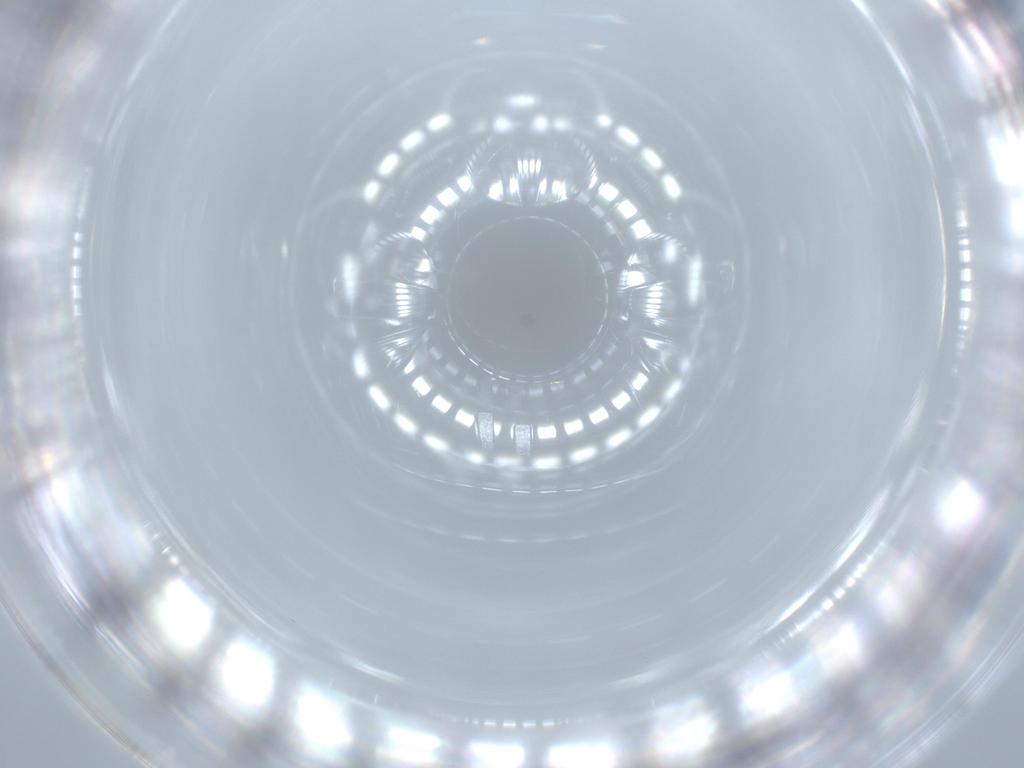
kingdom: Animalia
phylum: Arthropoda
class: Insecta
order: Diptera
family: Cecidomyiidae
